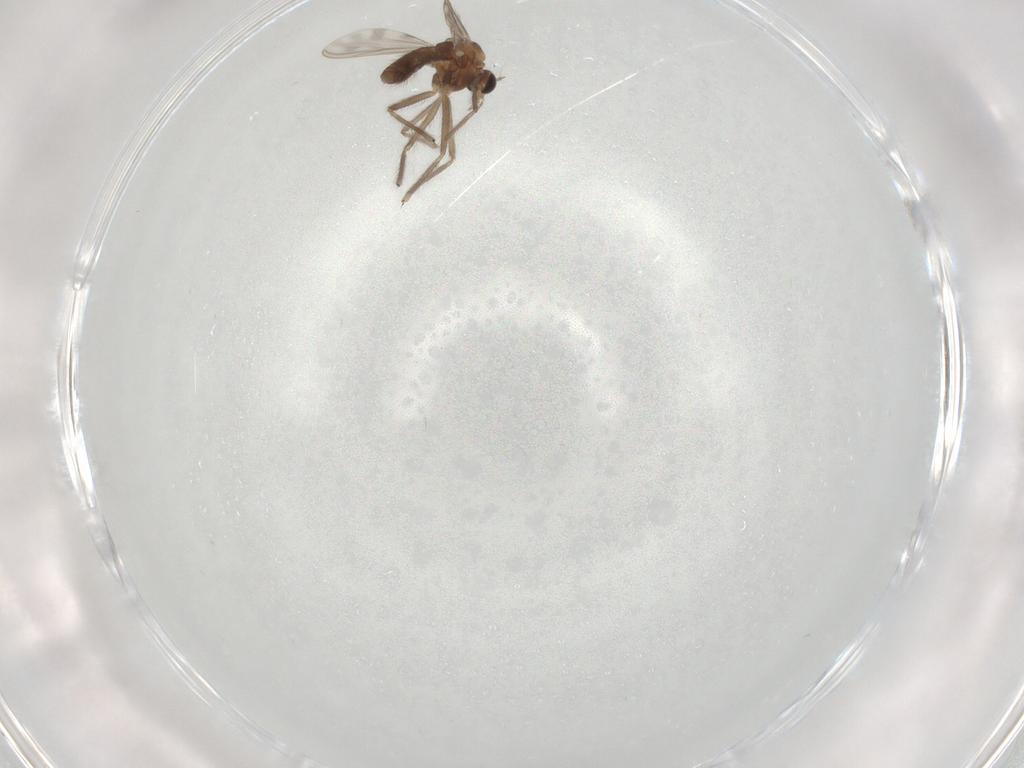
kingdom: Animalia
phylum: Arthropoda
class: Insecta
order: Diptera
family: Chironomidae
